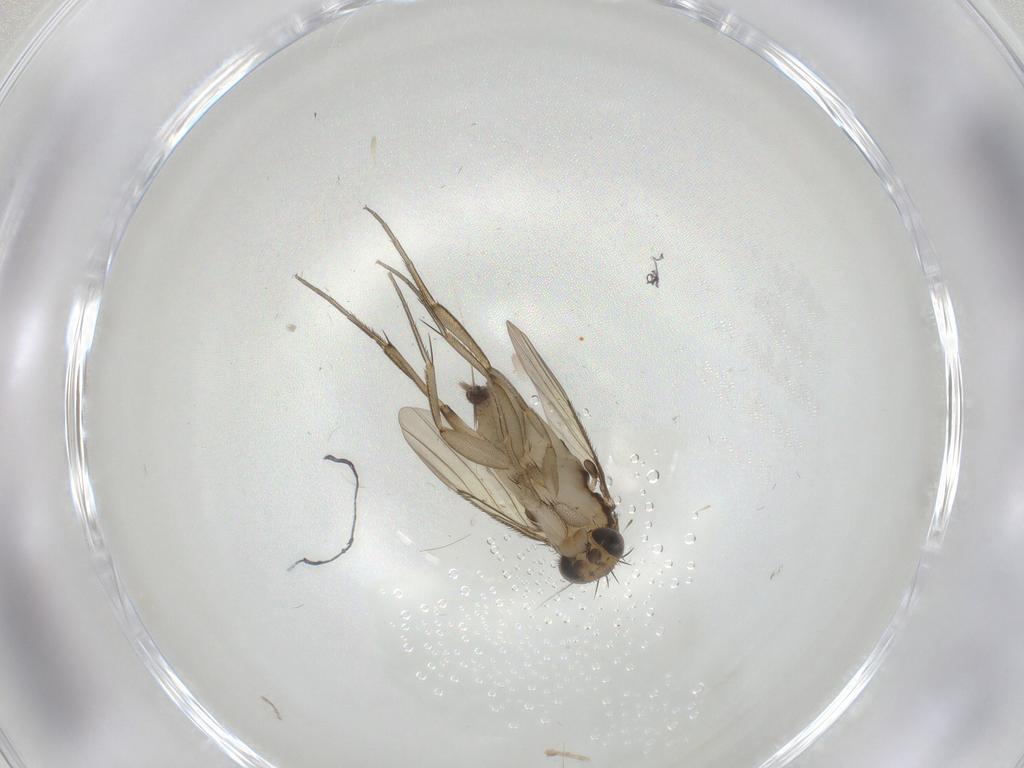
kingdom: Animalia
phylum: Arthropoda
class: Insecta
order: Diptera
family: Phoridae
